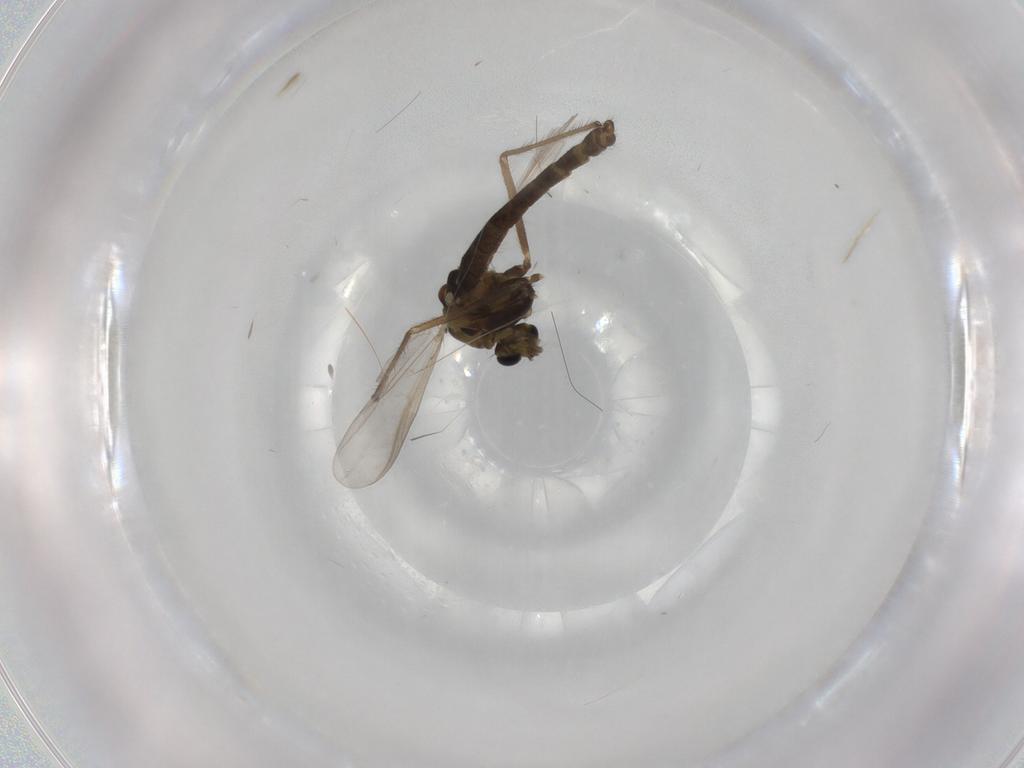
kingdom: Animalia
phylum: Arthropoda
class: Insecta
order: Diptera
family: Chironomidae
